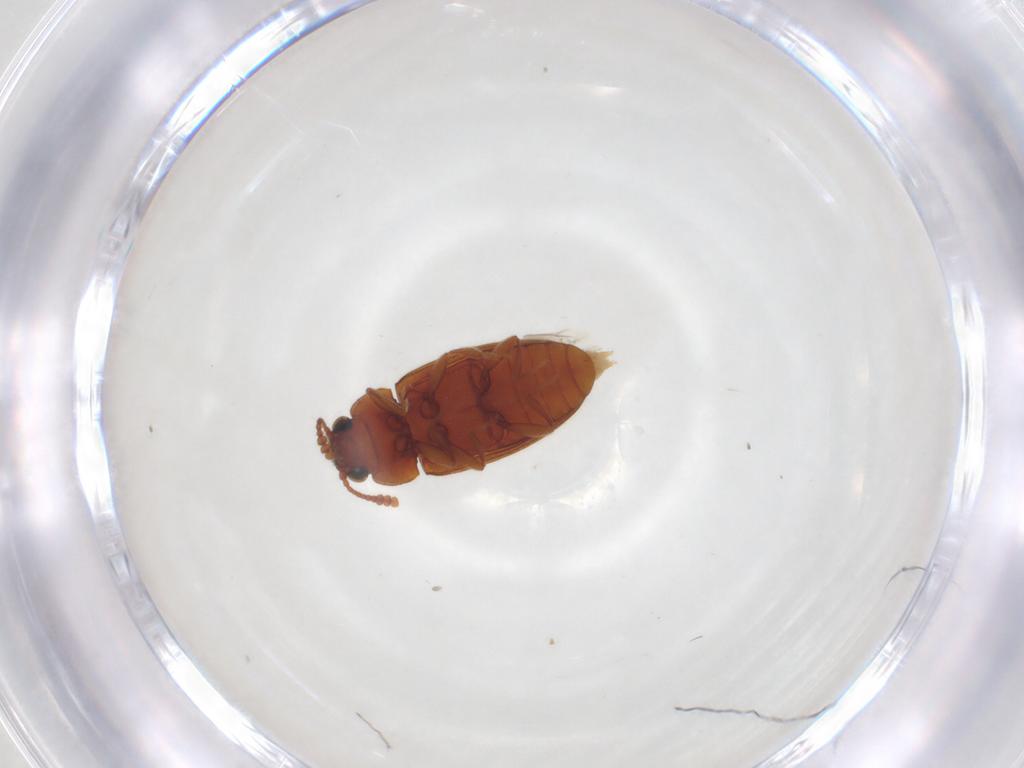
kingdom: Animalia
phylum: Arthropoda
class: Insecta
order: Coleoptera
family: Erotylidae
